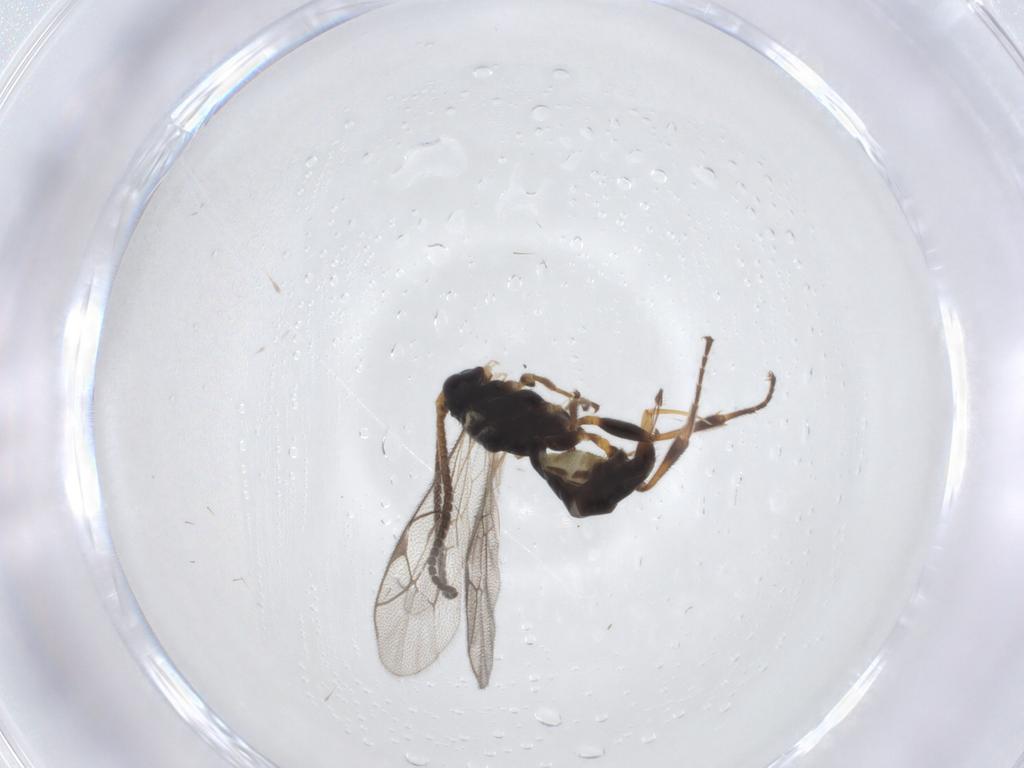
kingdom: Animalia
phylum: Arthropoda
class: Insecta
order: Hymenoptera
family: Ichneumonidae
